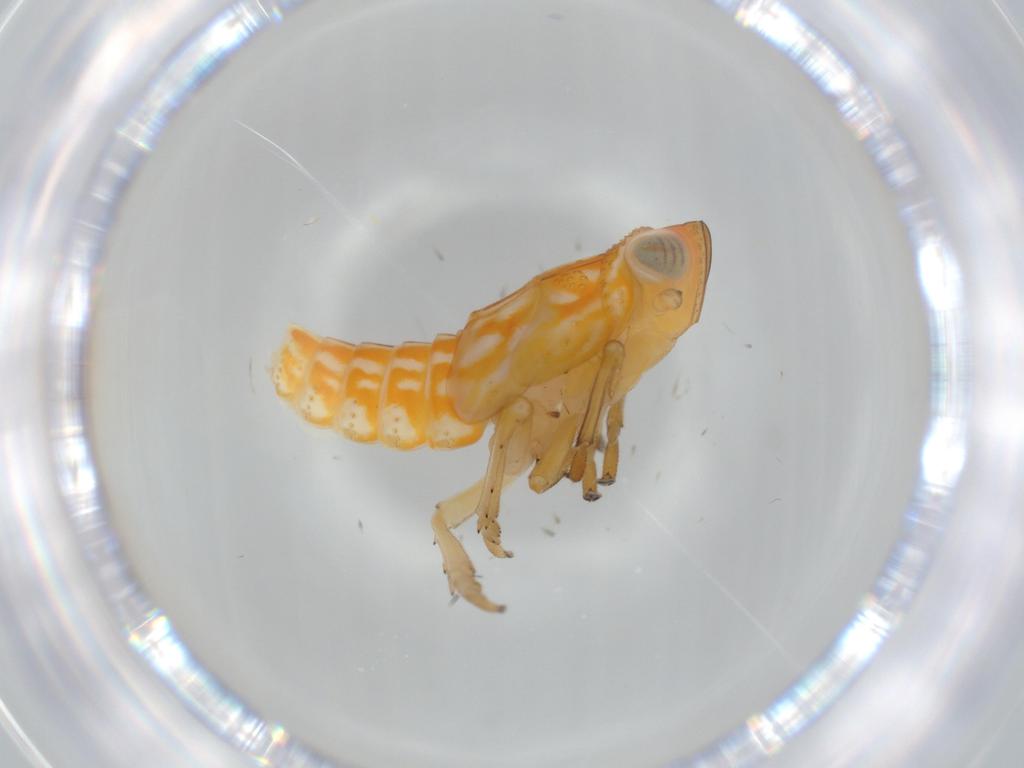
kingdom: Animalia
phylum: Arthropoda
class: Insecta
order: Hemiptera
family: Issidae
